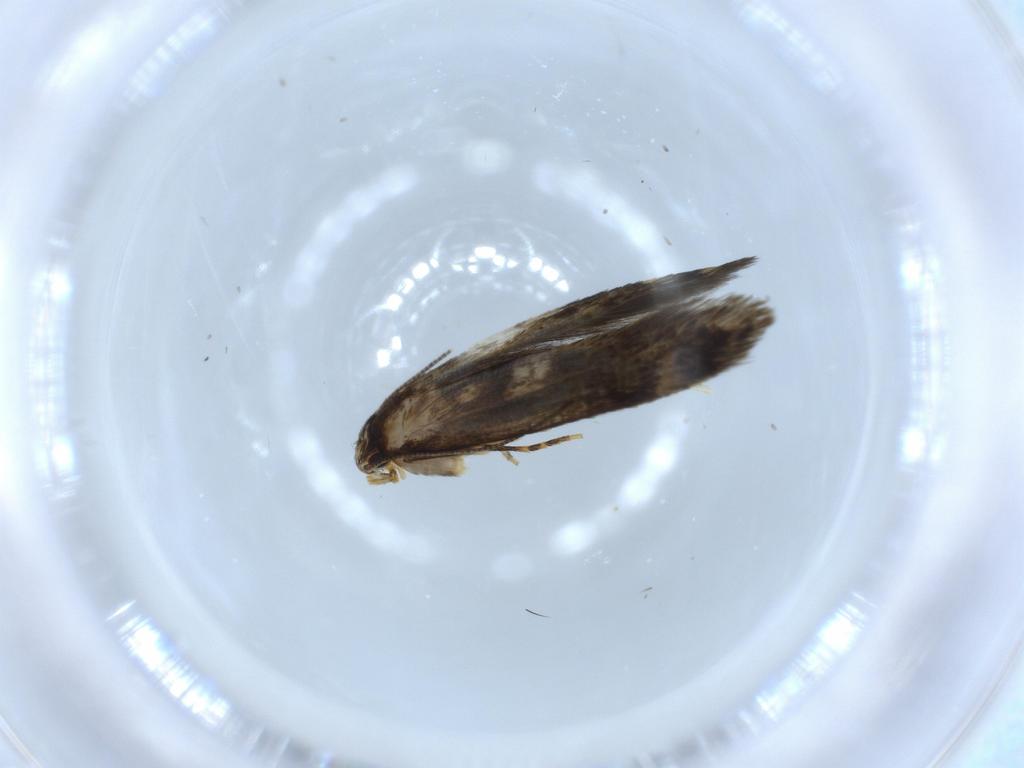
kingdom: Animalia
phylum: Arthropoda
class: Insecta
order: Lepidoptera
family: Tineidae
